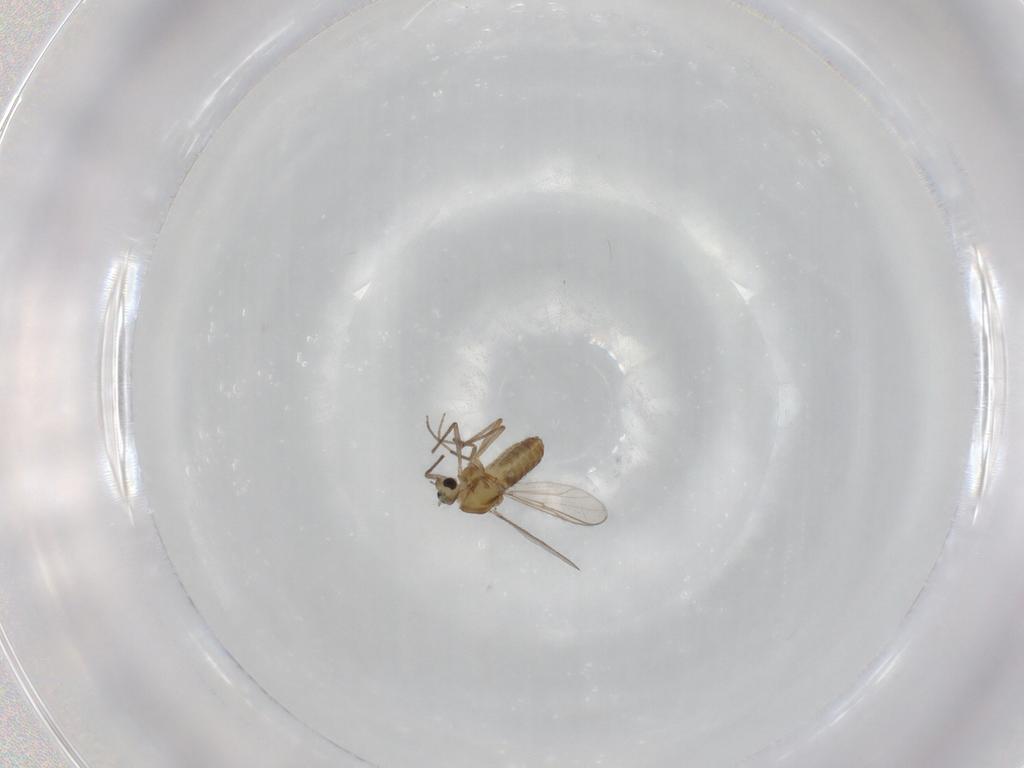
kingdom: Animalia
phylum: Arthropoda
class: Insecta
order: Diptera
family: Chironomidae
